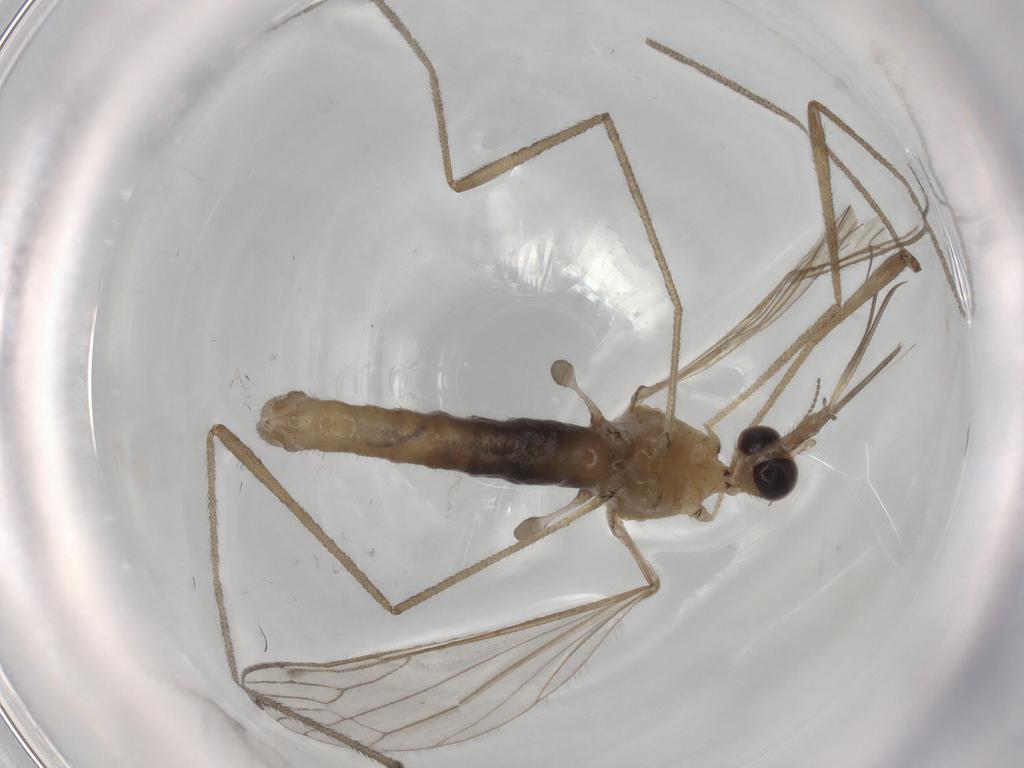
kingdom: Animalia
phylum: Arthropoda
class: Insecta
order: Diptera
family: Limoniidae
